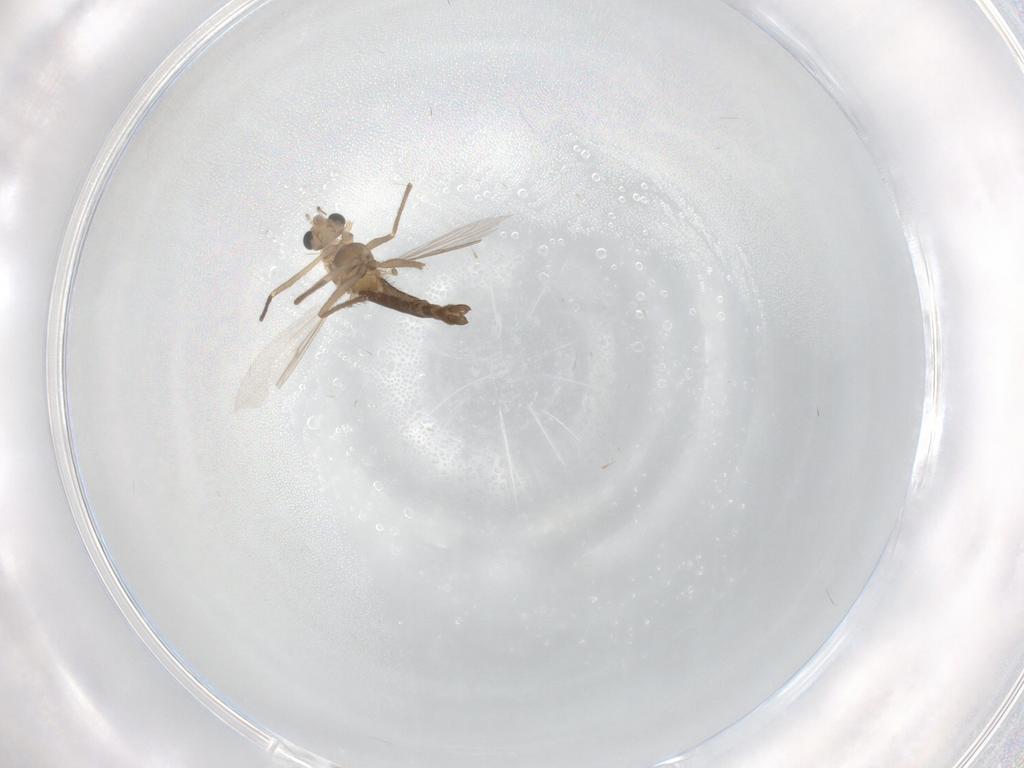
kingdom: Animalia
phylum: Arthropoda
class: Insecta
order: Diptera
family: Chironomidae
